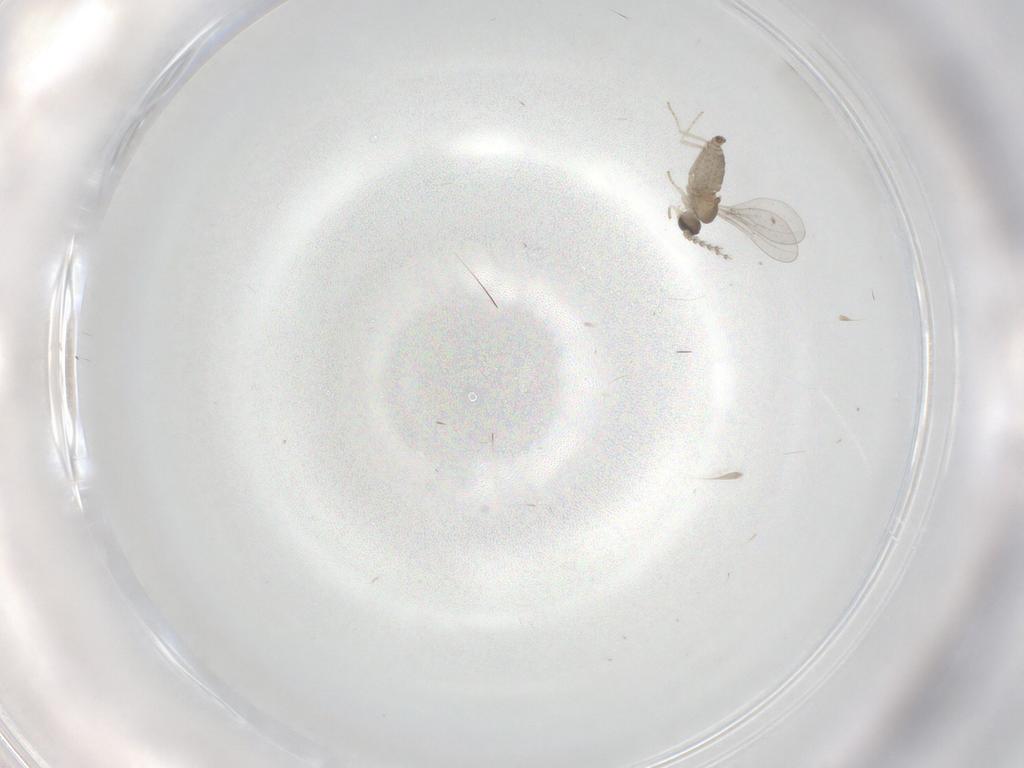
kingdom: Animalia
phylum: Arthropoda
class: Insecta
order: Diptera
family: Cecidomyiidae
